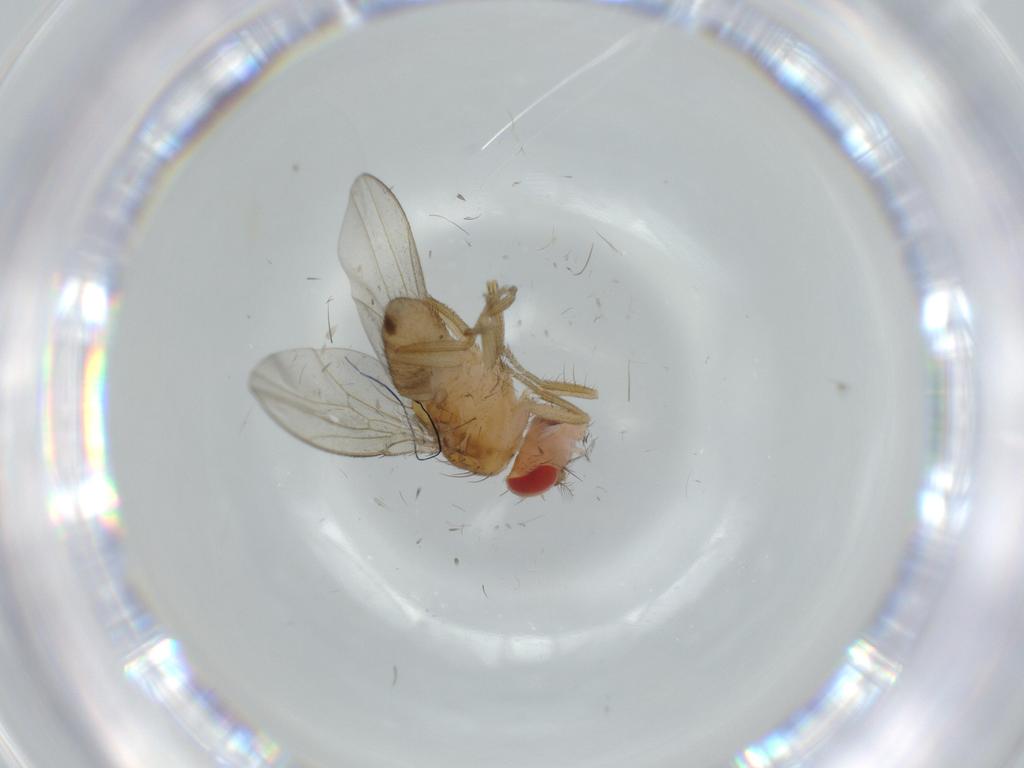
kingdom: Animalia
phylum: Arthropoda
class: Insecta
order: Diptera
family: Drosophilidae
